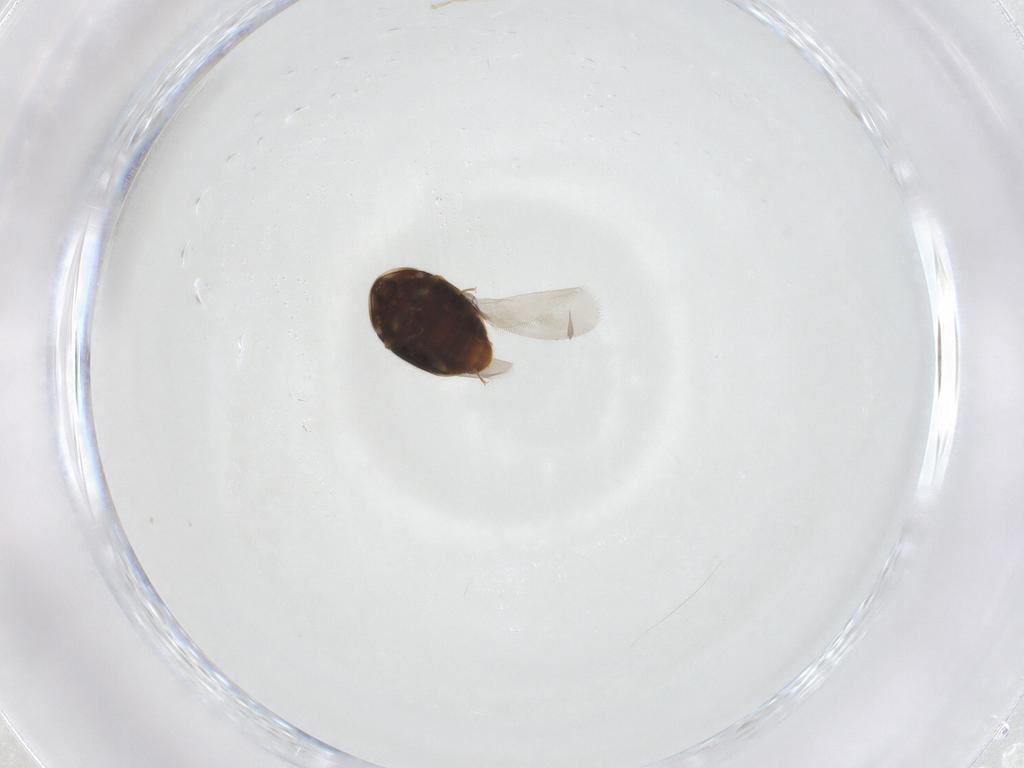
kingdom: Animalia
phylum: Arthropoda
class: Insecta
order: Coleoptera
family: Corylophidae
